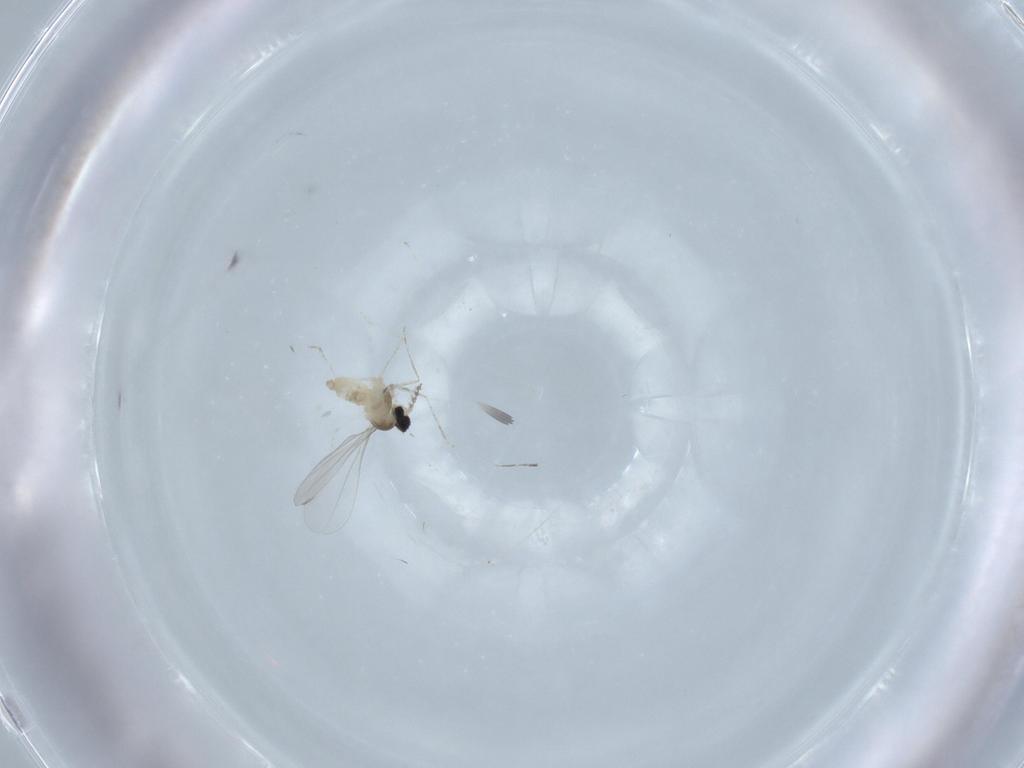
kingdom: Animalia
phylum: Arthropoda
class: Insecta
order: Diptera
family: Cecidomyiidae
